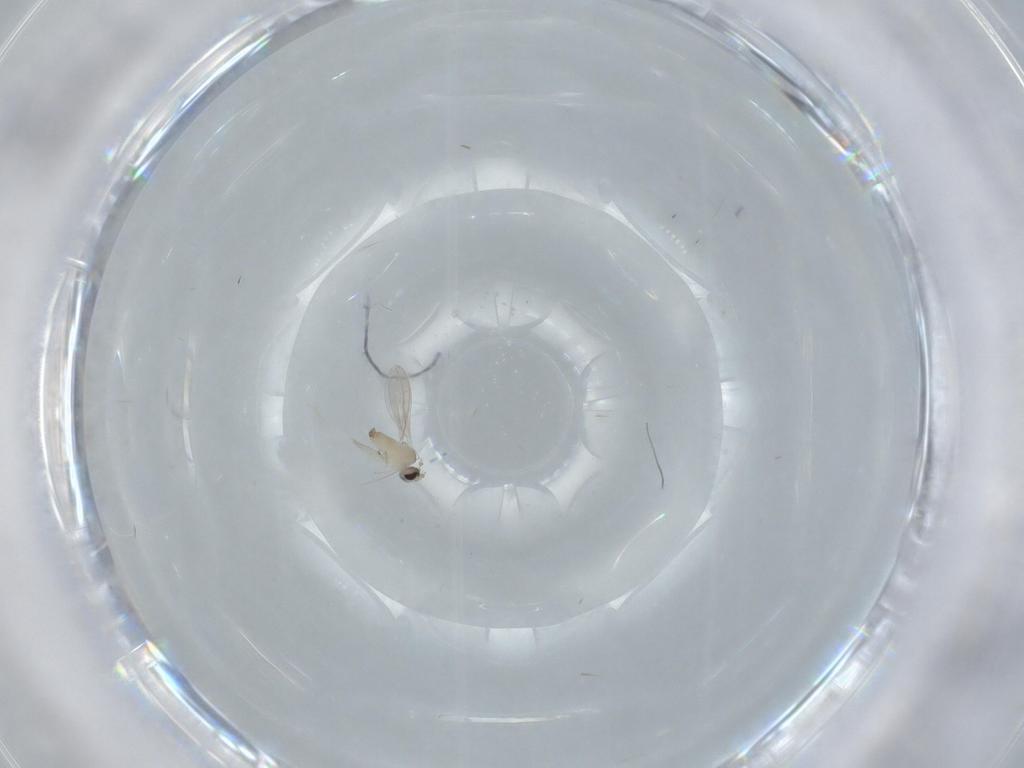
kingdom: Animalia
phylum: Arthropoda
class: Insecta
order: Diptera
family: Cecidomyiidae
